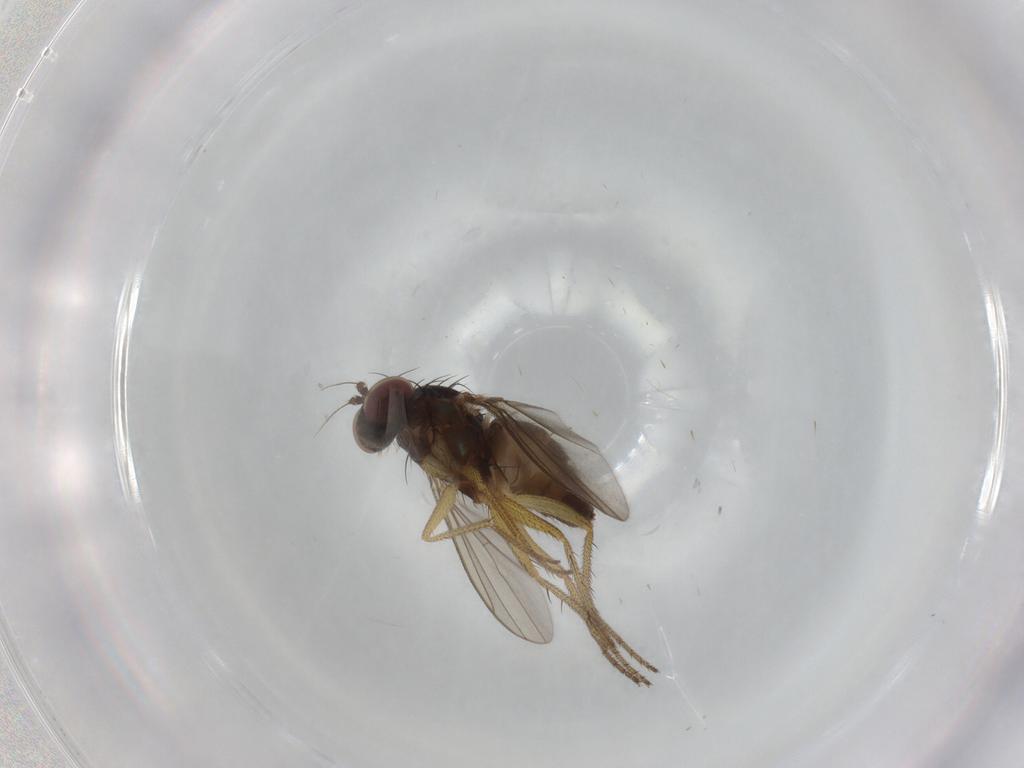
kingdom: Animalia
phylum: Arthropoda
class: Insecta
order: Diptera
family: Dolichopodidae
